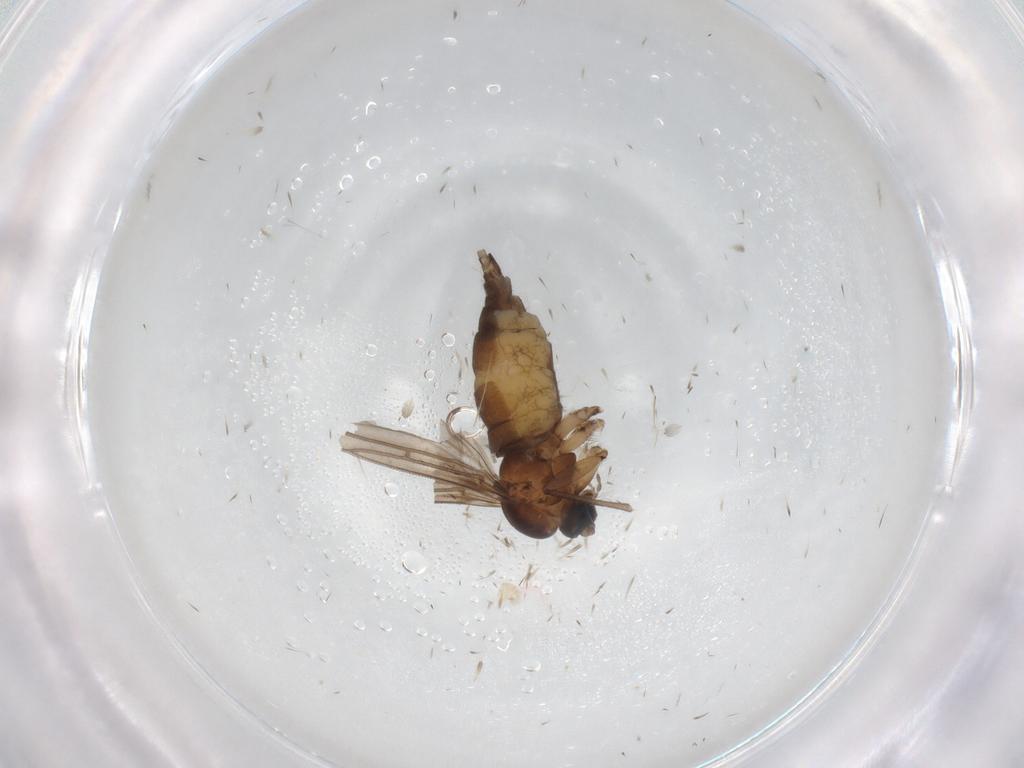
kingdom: Animalia
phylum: Arthropoda
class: Insecta
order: Diptera
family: Sciaridae
